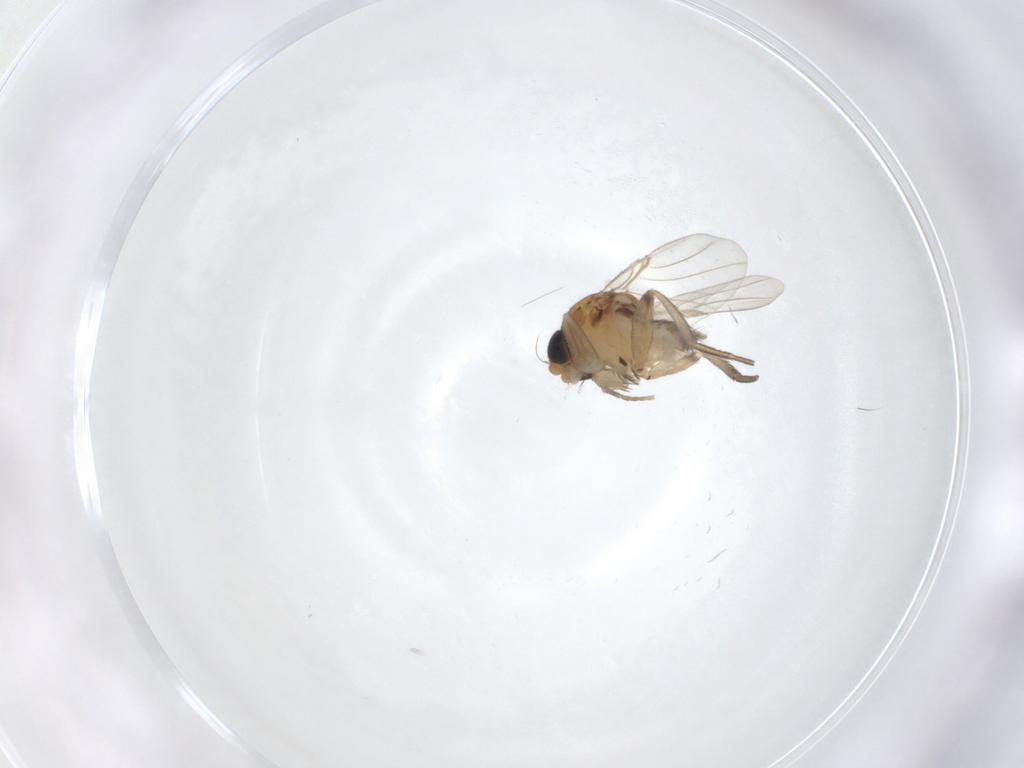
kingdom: Animalia
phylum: Arthropoda
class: Insecta
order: Diptera
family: Phoridae
